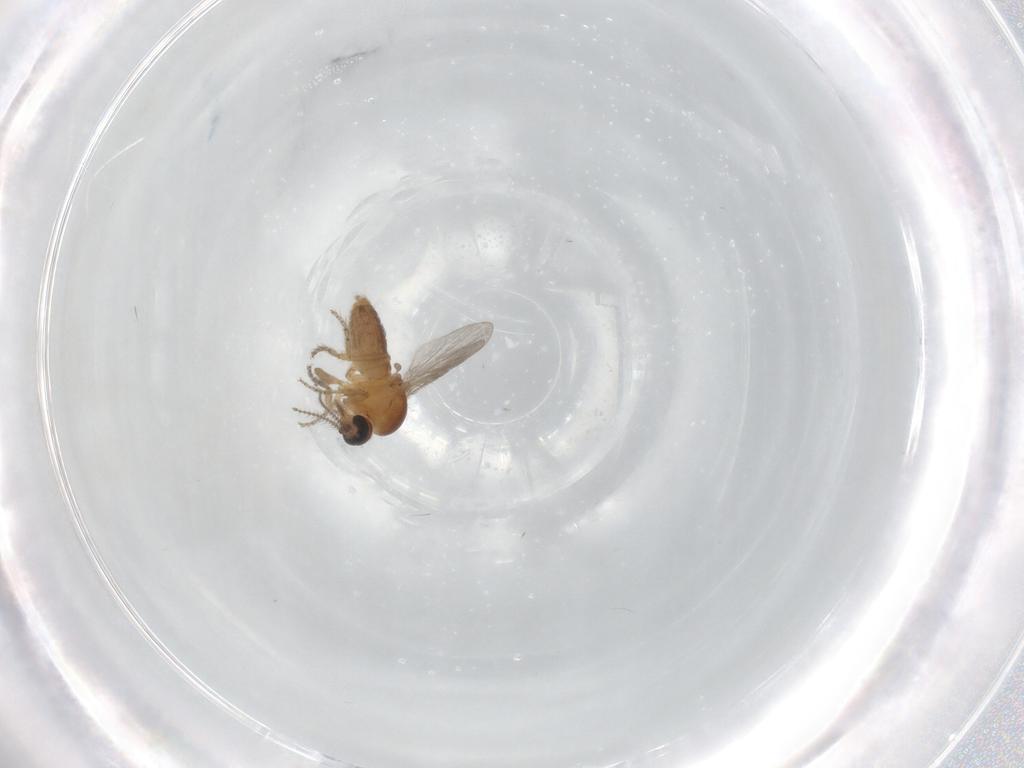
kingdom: Animalia
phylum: Arthropoda
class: Insecta
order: Diptera
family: Ceratopogonidae
